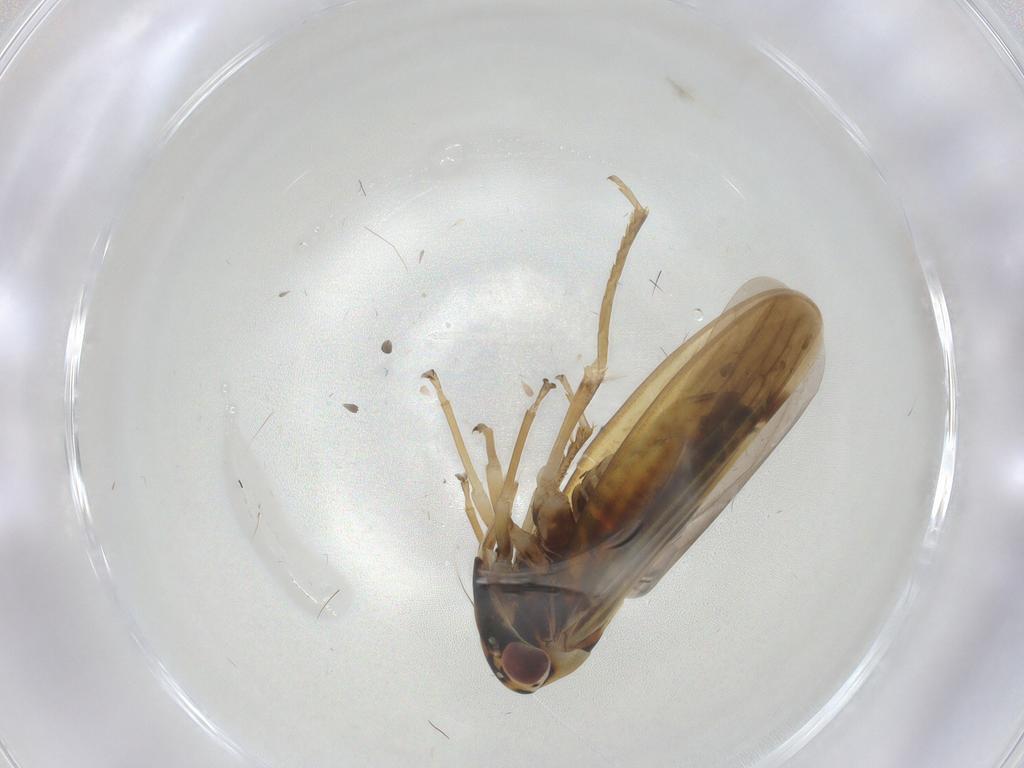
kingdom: Animalia
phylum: Arthropoda
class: Insecta
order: Hemiptera
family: Cicadellidae
